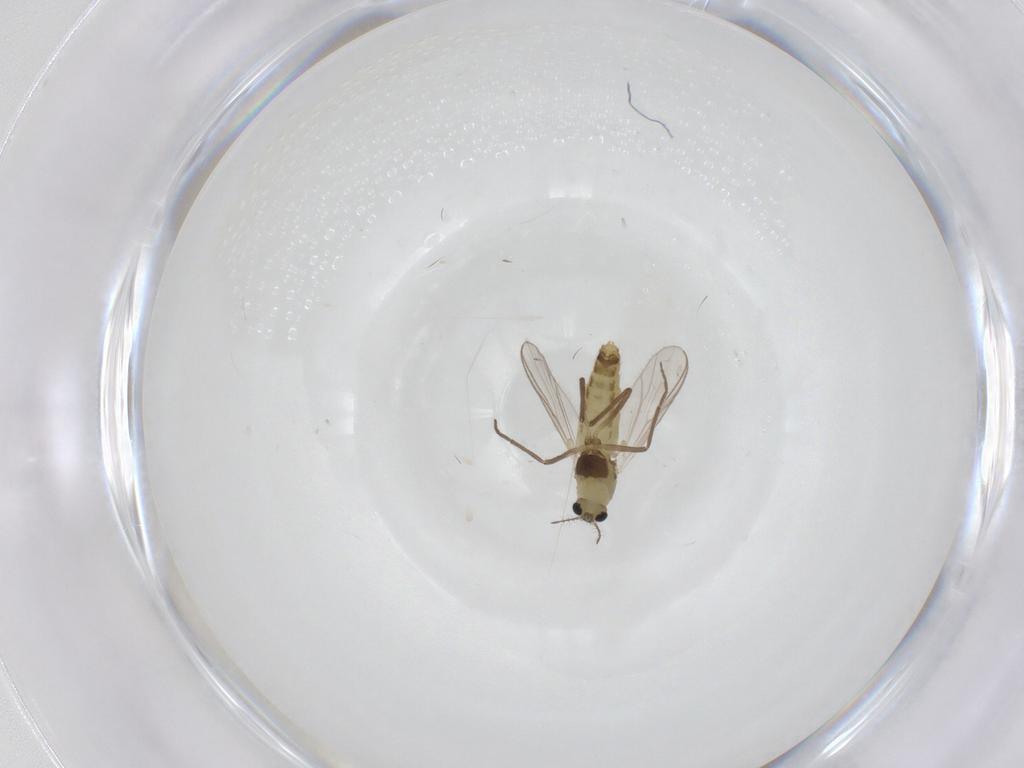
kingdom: Animalia
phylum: Arthropoda
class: Insecta
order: Diptera
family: Chironomidae
